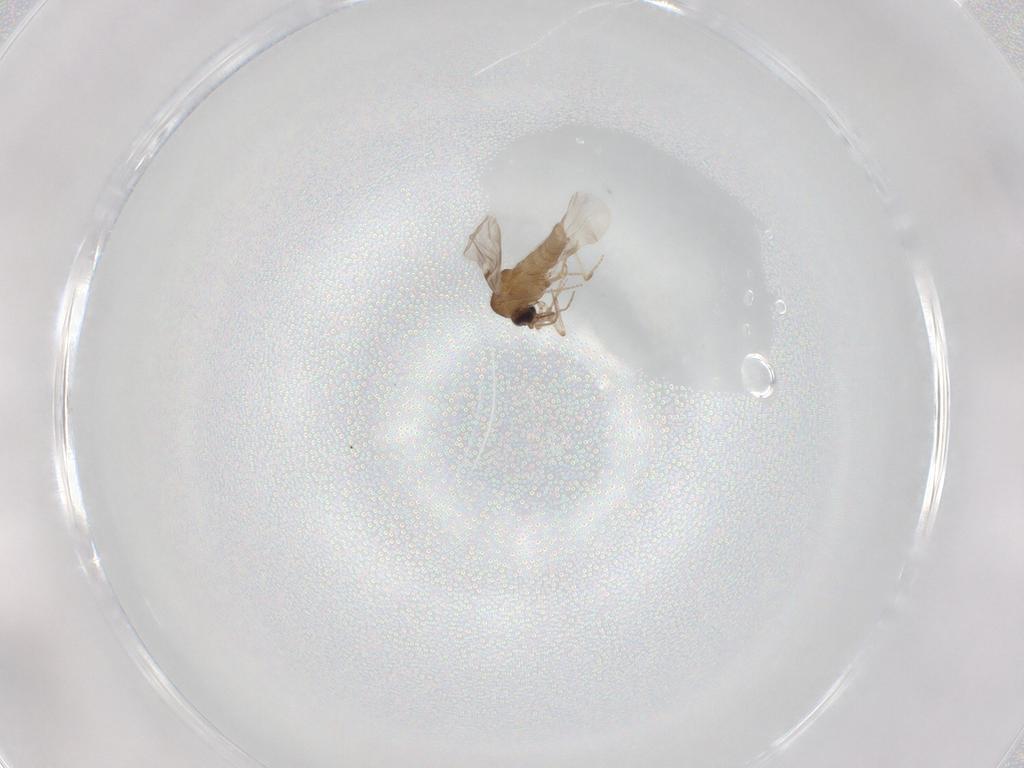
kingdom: Animalia
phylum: Arthropoda
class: Insecta
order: Diptera
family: Ceratopogonidae
